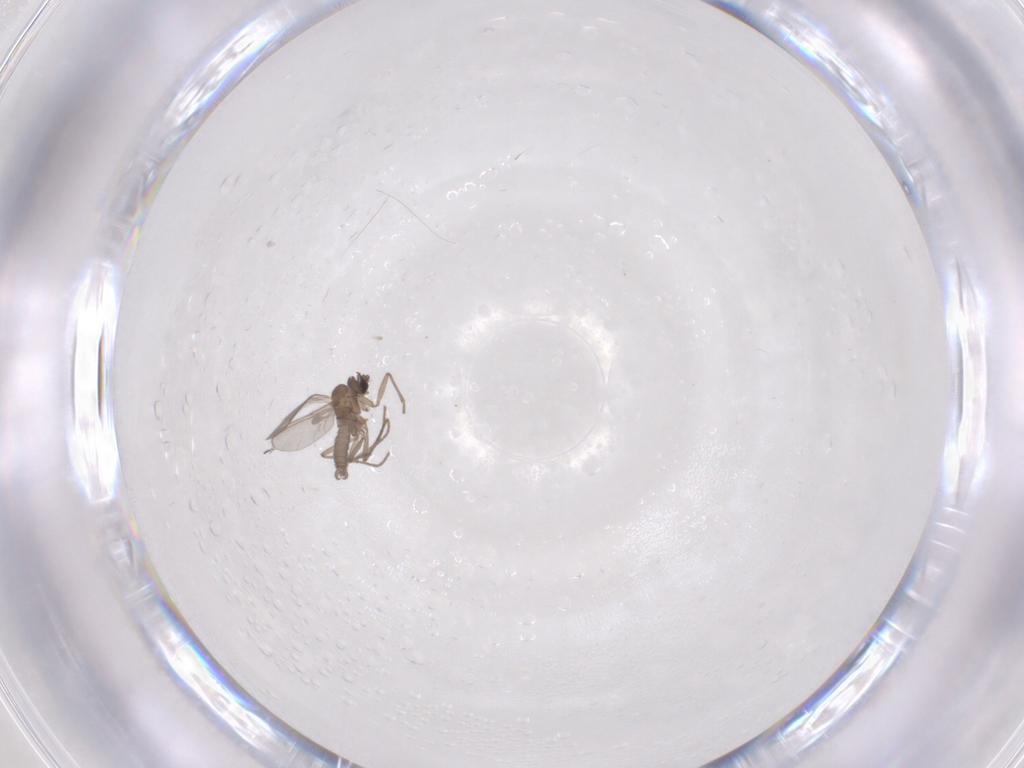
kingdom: Animalia
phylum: Arthropoda
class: Insecta
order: Diptera
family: Sciaridae
